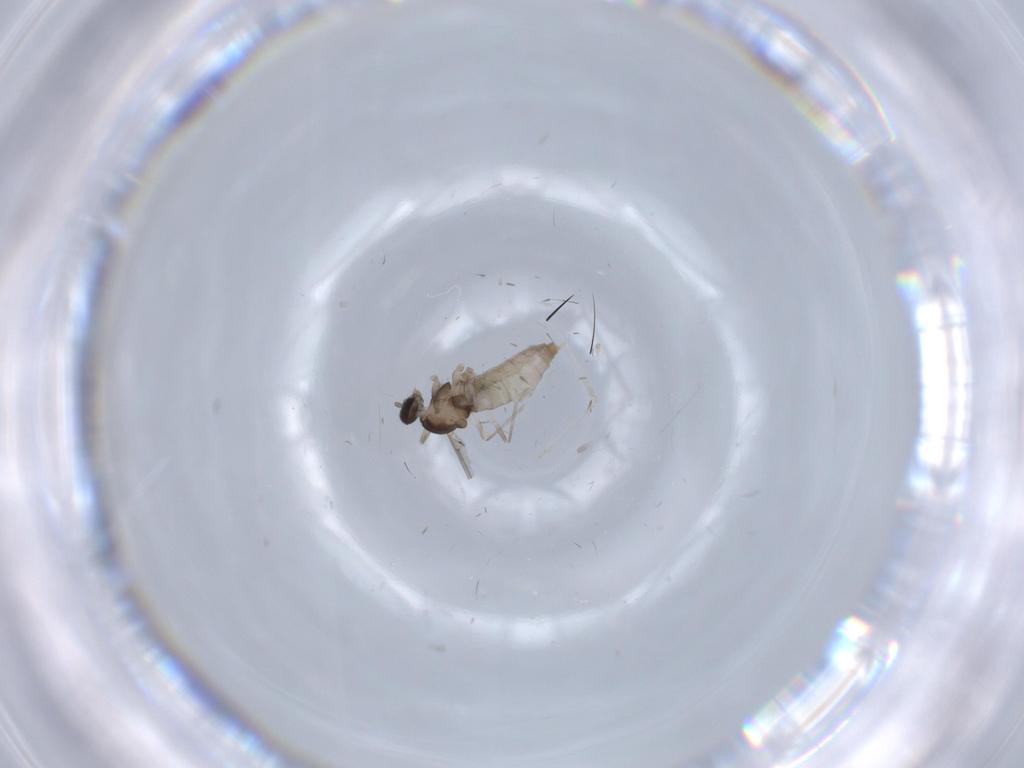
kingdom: Animalia
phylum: Arthropoda
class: Insecta
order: Diptera
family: Cecidomyiidae
